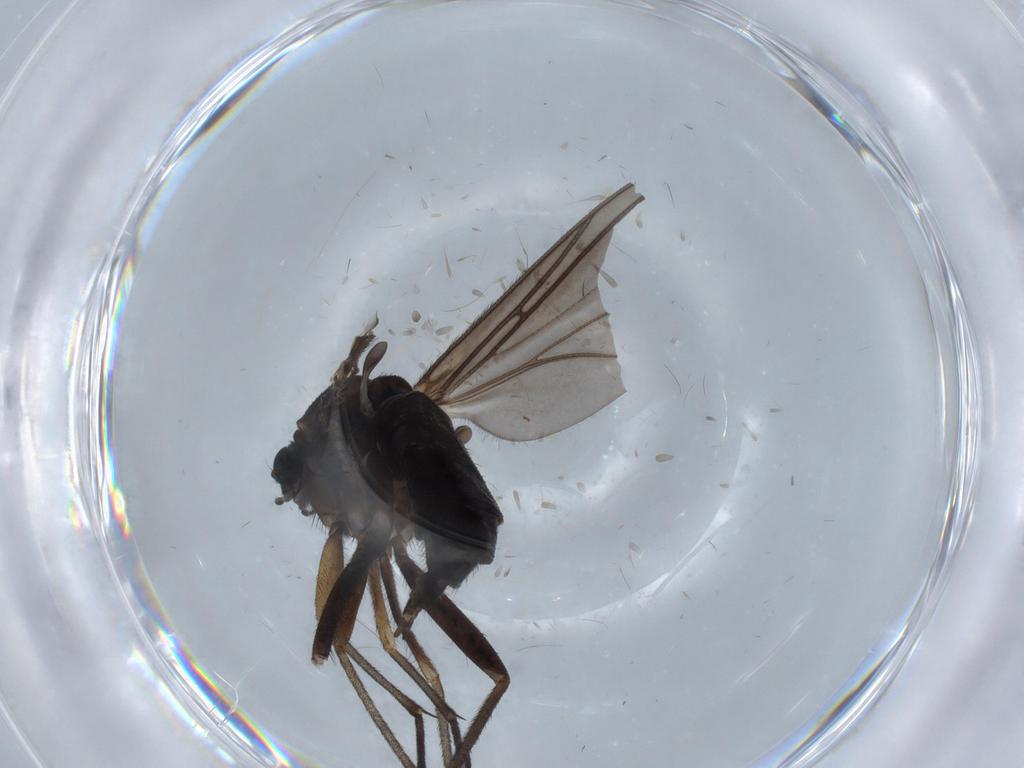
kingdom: Animalia
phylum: Arthropoda
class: Insecta
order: Diptera
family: Sciaridae
